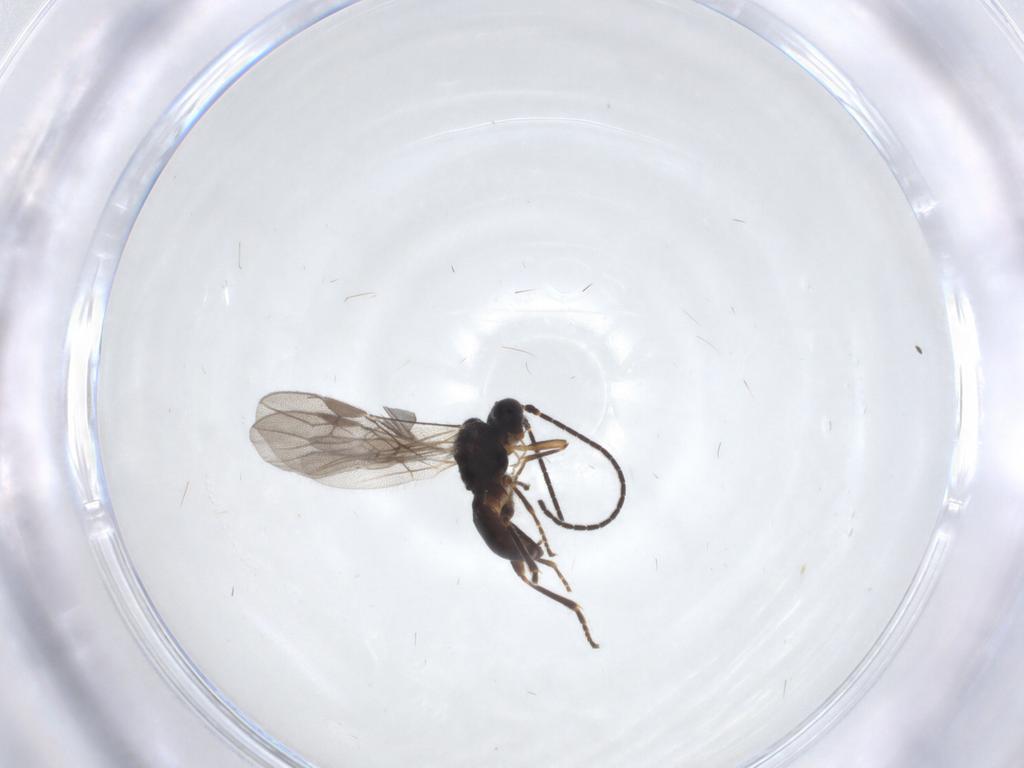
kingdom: Animalia
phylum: Arthropoda
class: Insecta
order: Hymenoptera
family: Braconidae
